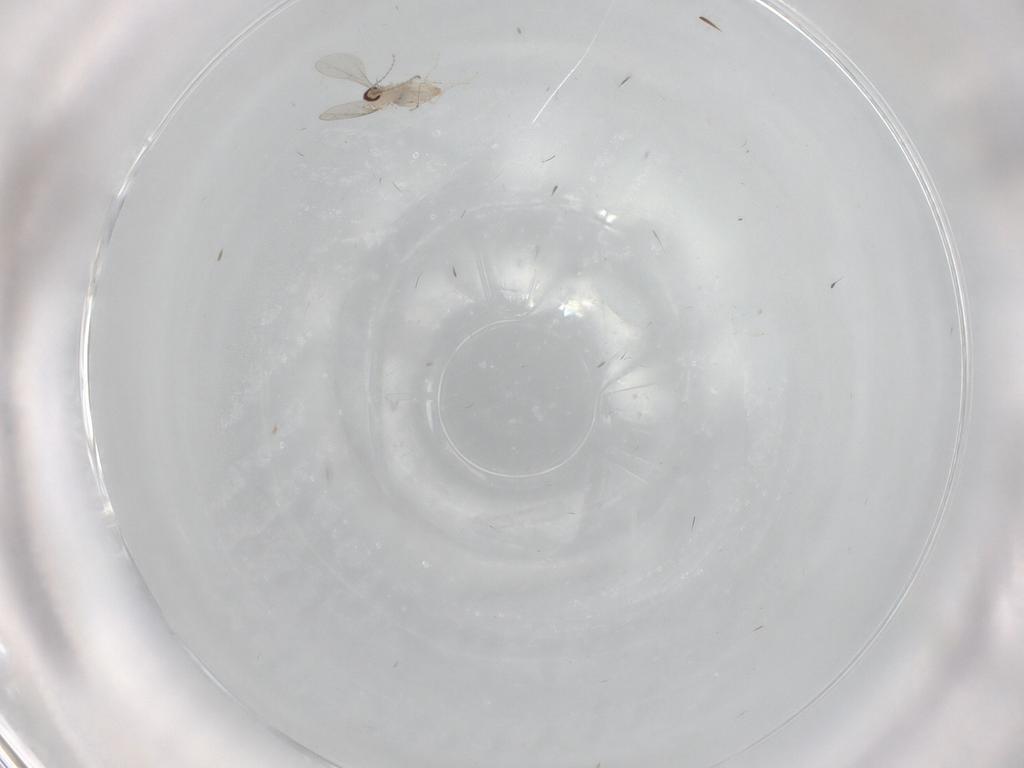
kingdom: Animalia
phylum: Arthropoda
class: Insecta
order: Diptera
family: Cecidomyiidae
